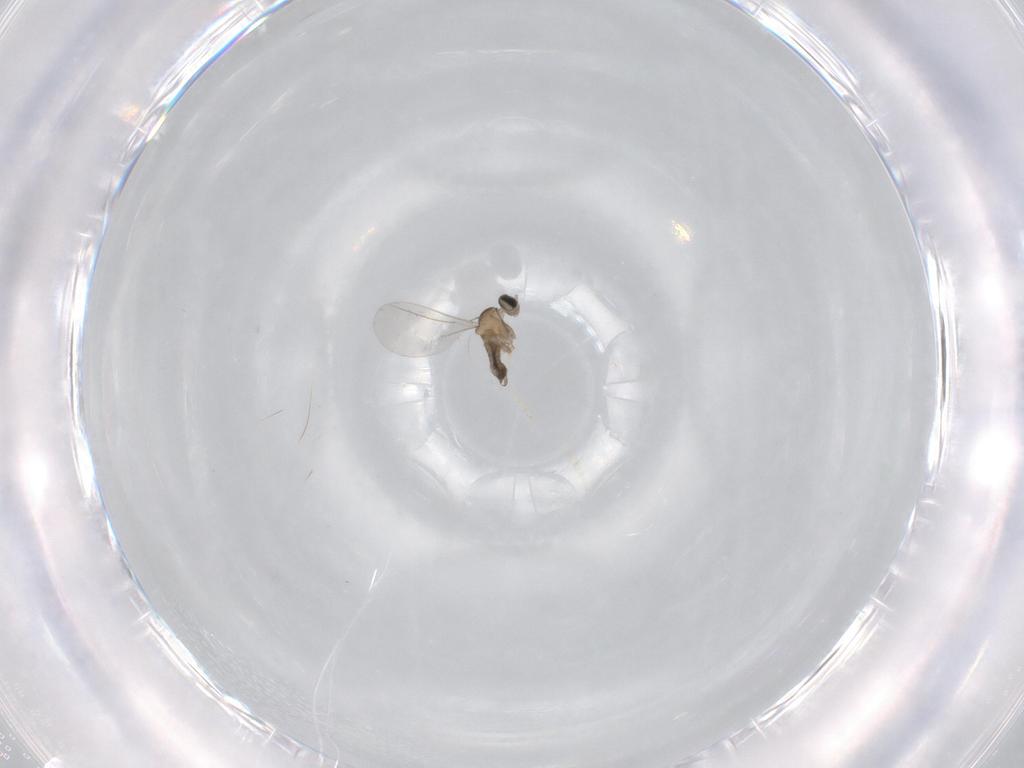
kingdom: Animalia
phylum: Arthropoda
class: Insecta
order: Diptera
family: Cecidomyiidae
